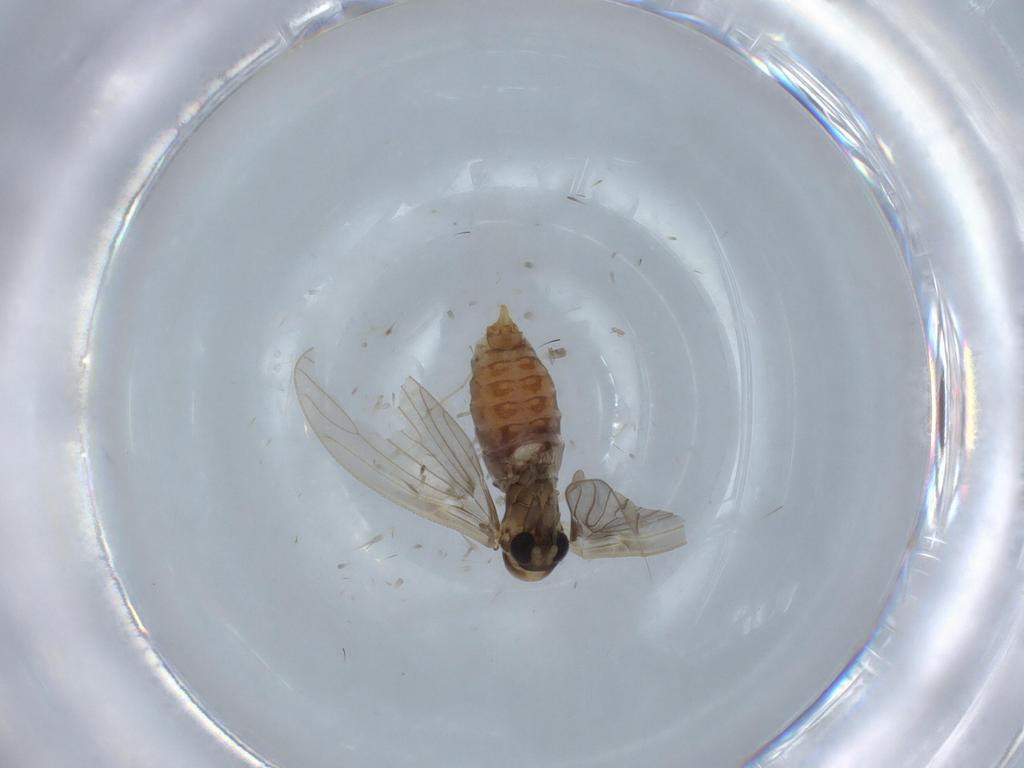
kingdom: Animalia
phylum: Arthropoda
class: Insecta
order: Diptera
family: Psychodidae
